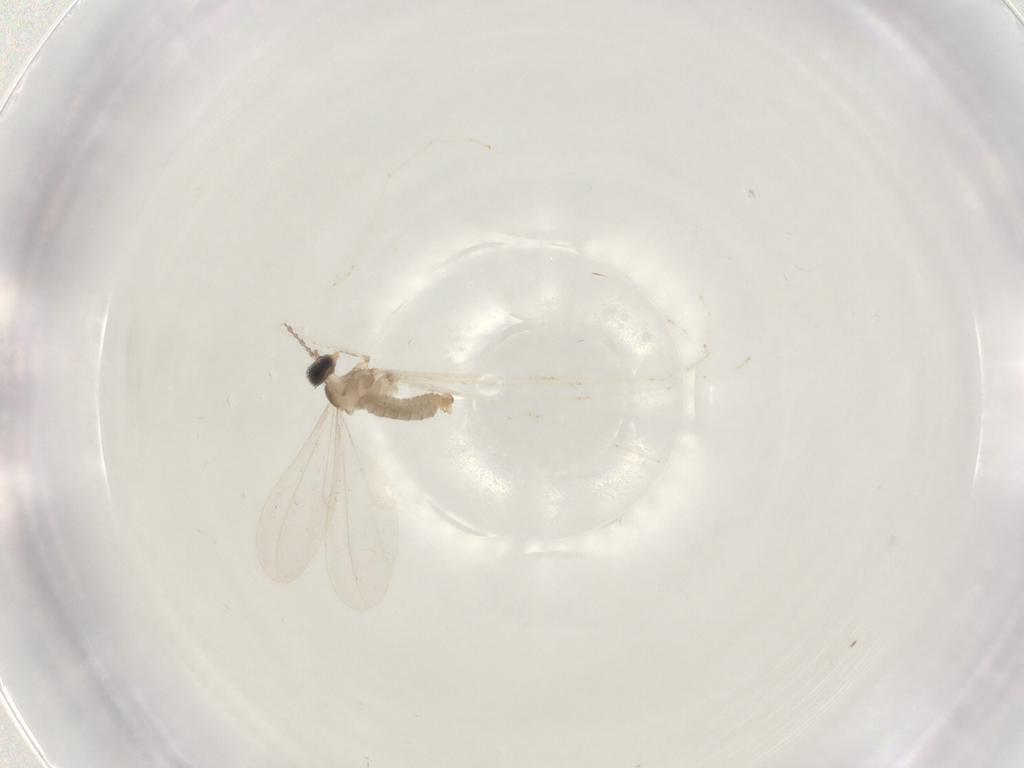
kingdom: Animalia
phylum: Arthropoda
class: Insecta
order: Diptera
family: Cecidomyiidae
